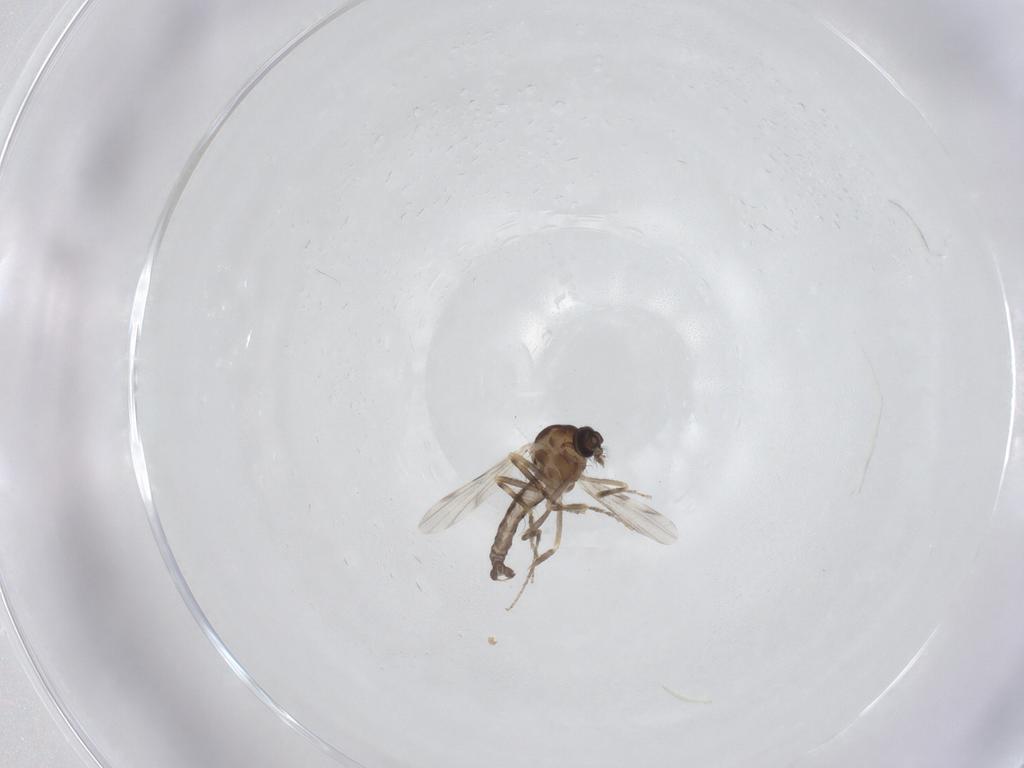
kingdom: Animalia
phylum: Arthropoda
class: Insecta
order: Diptera
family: Ceratopogonidae
